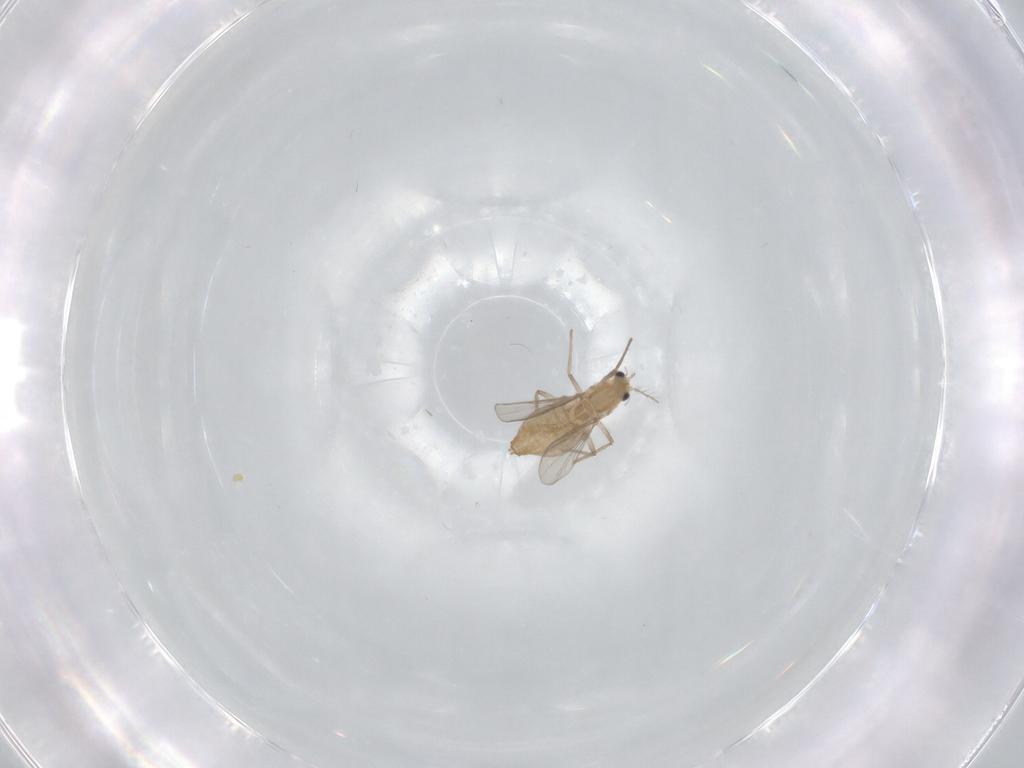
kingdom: Animalia
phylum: Arthropoda
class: Insecta
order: Diptera
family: Chironomidae
